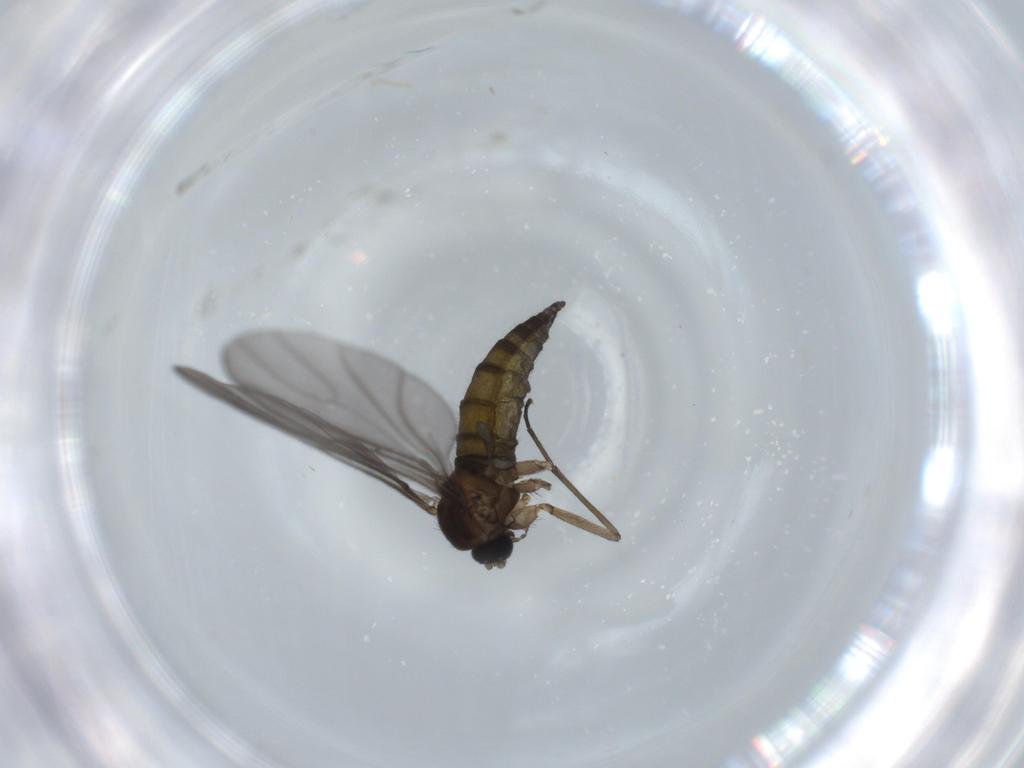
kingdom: Animalia
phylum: Arthropoda
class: Insecta
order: Diptera
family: Sciaridae
